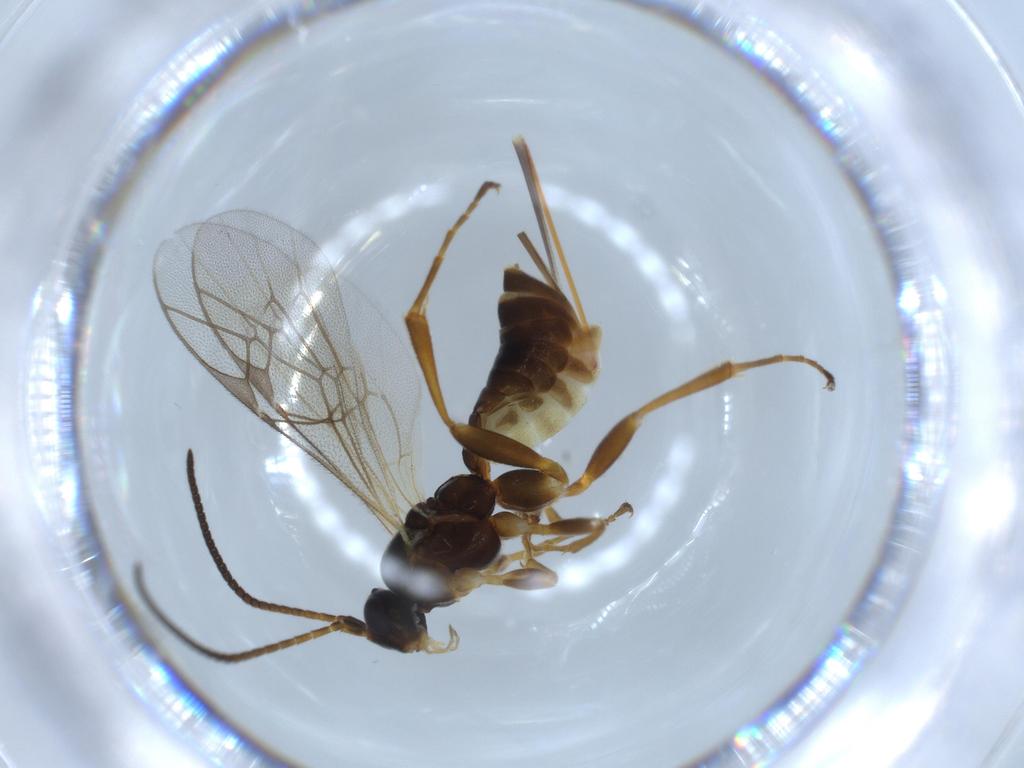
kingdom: Animalia
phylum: Arthropoda
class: Insecta
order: Hymenoptera
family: Ichneumonidae
